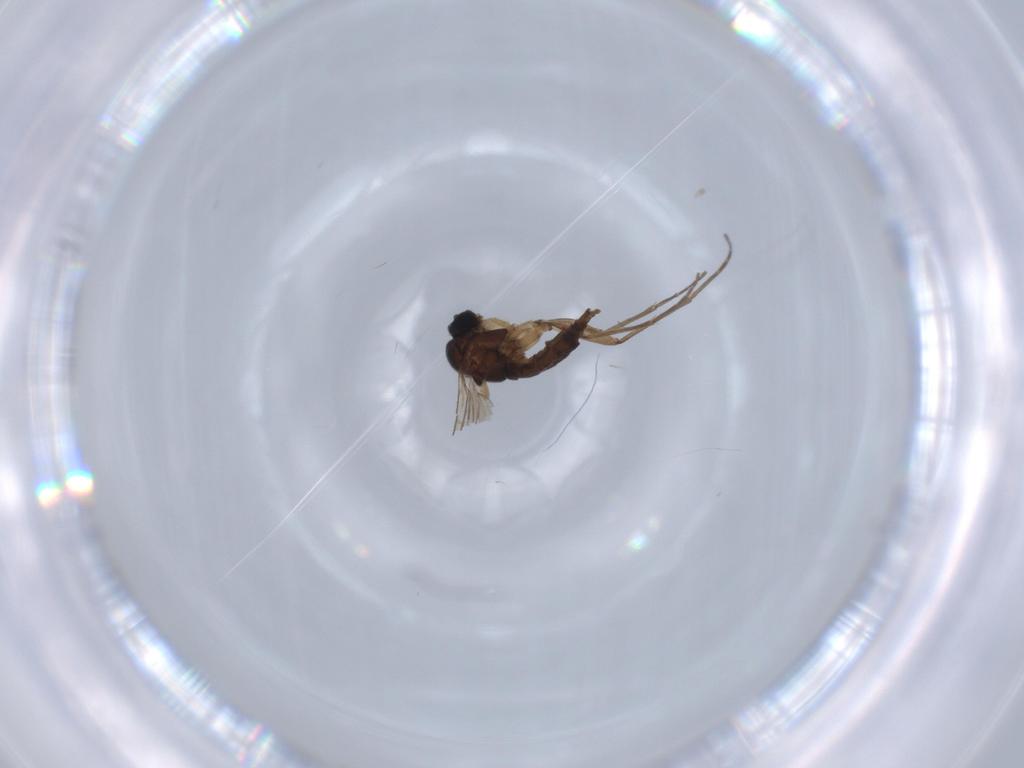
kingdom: Animalia
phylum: Arthropoda
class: Insecta
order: Diptera
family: Sciaridae
